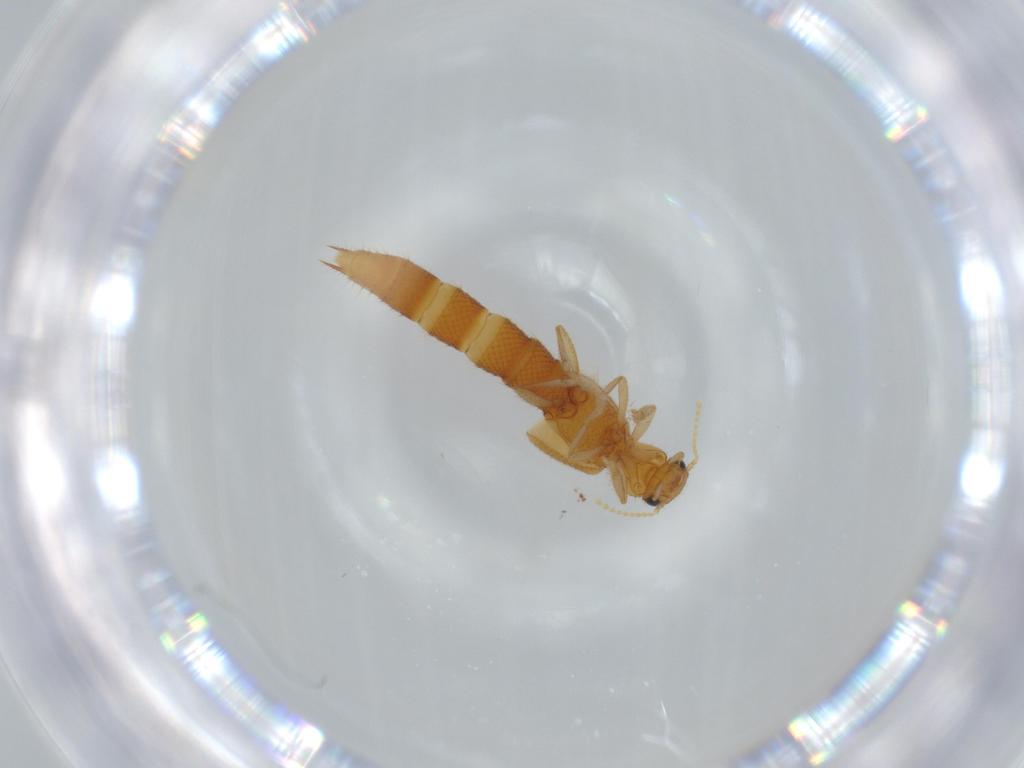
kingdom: Animalia
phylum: Arthropoda
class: Insecta
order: Coleoptera
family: Staphylinidae
